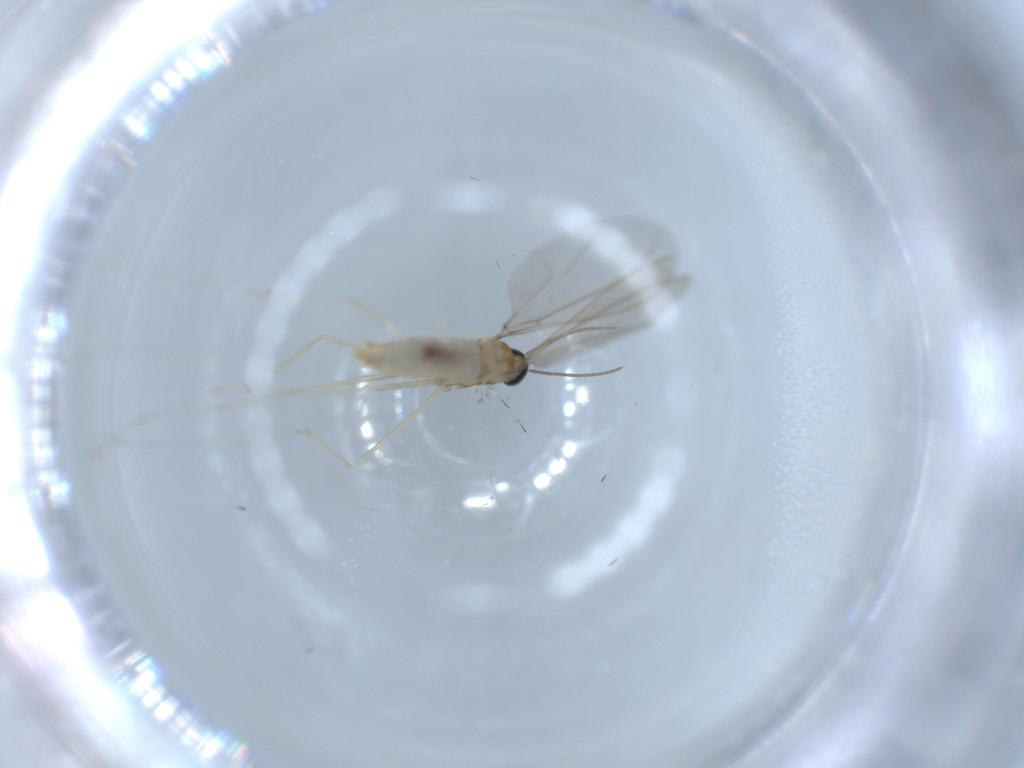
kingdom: Animalia
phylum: Arthropoda
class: Insecta
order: Diptera
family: Cecidomyiidae
